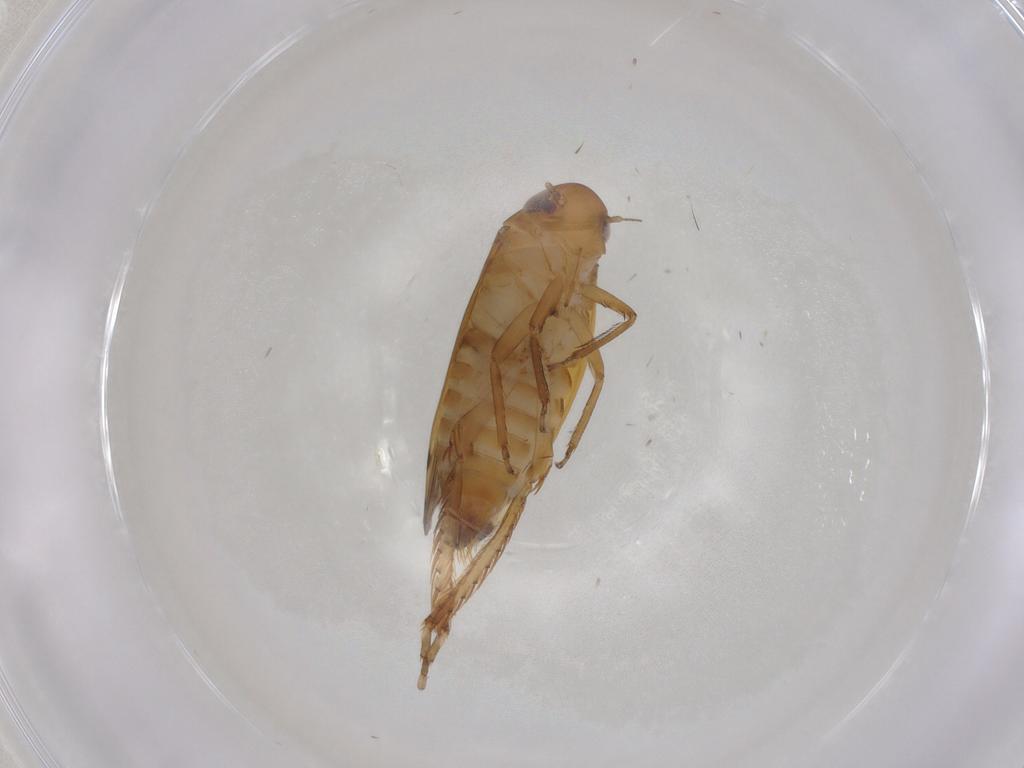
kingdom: Animalia
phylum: Arthropoda
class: Insecta
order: Hemiptera
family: Cicadellidae
